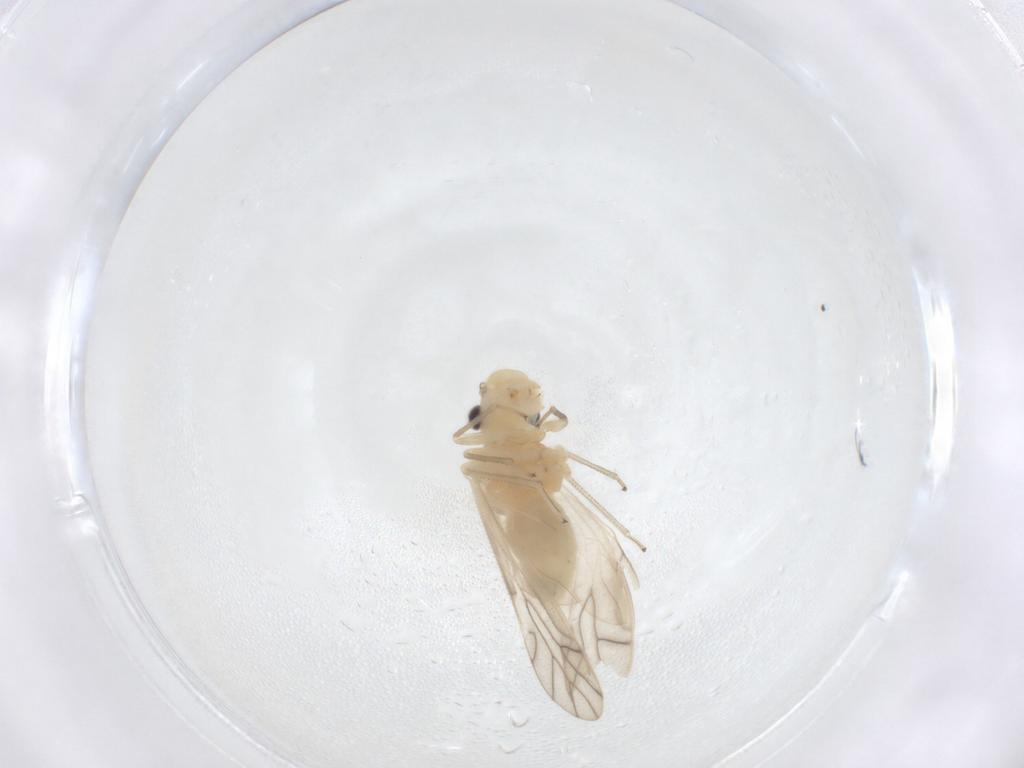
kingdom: Animalia
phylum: Arthropoda
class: Insecta
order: Psocodea
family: Caeciliusidae
